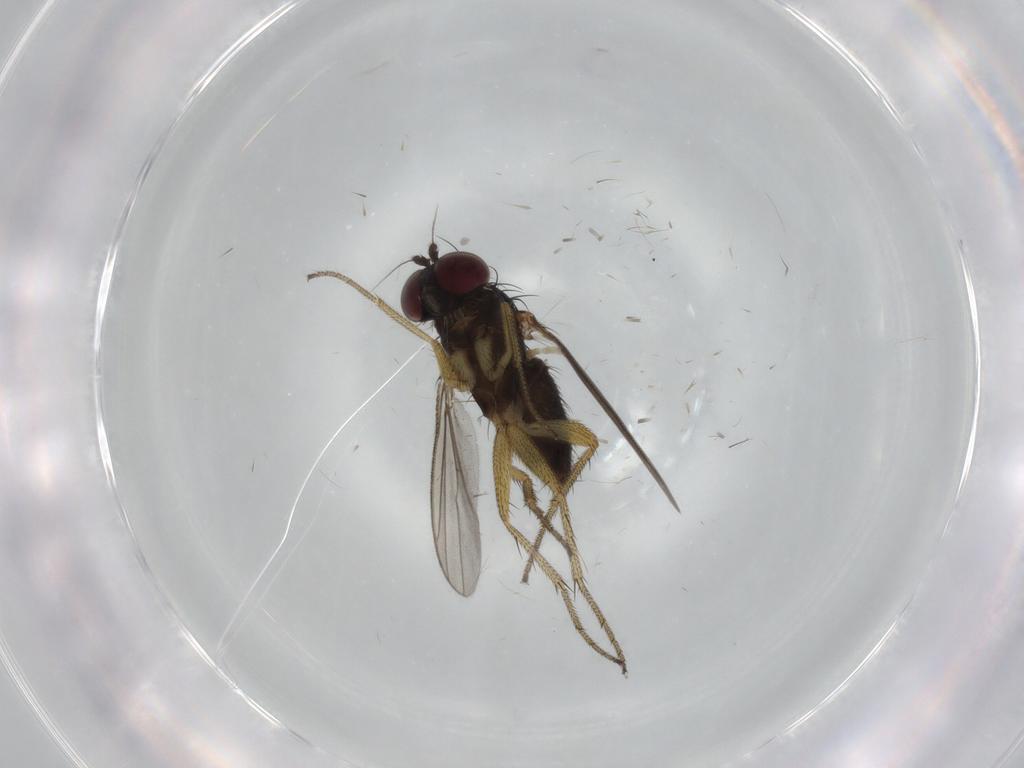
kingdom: Animalia
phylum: Arthropoda
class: Insecta
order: Diptera
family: Dolichopodidae
